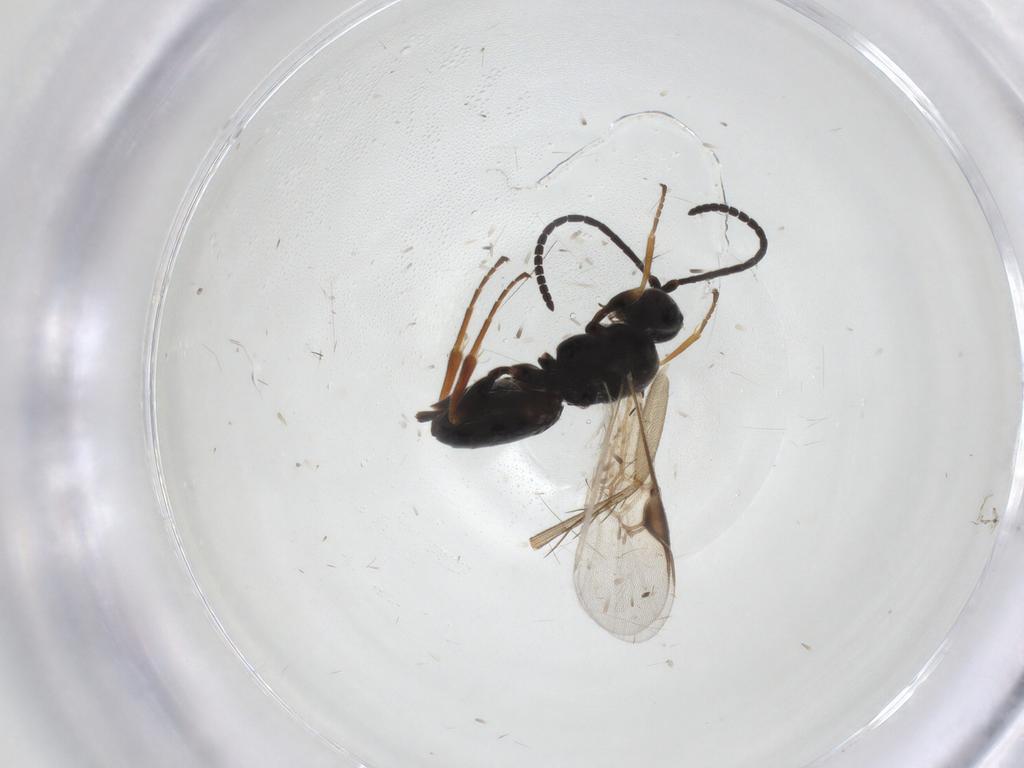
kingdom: Animalia
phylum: Arthropoda
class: Insecta
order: Hymenoptera
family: Braconidae
